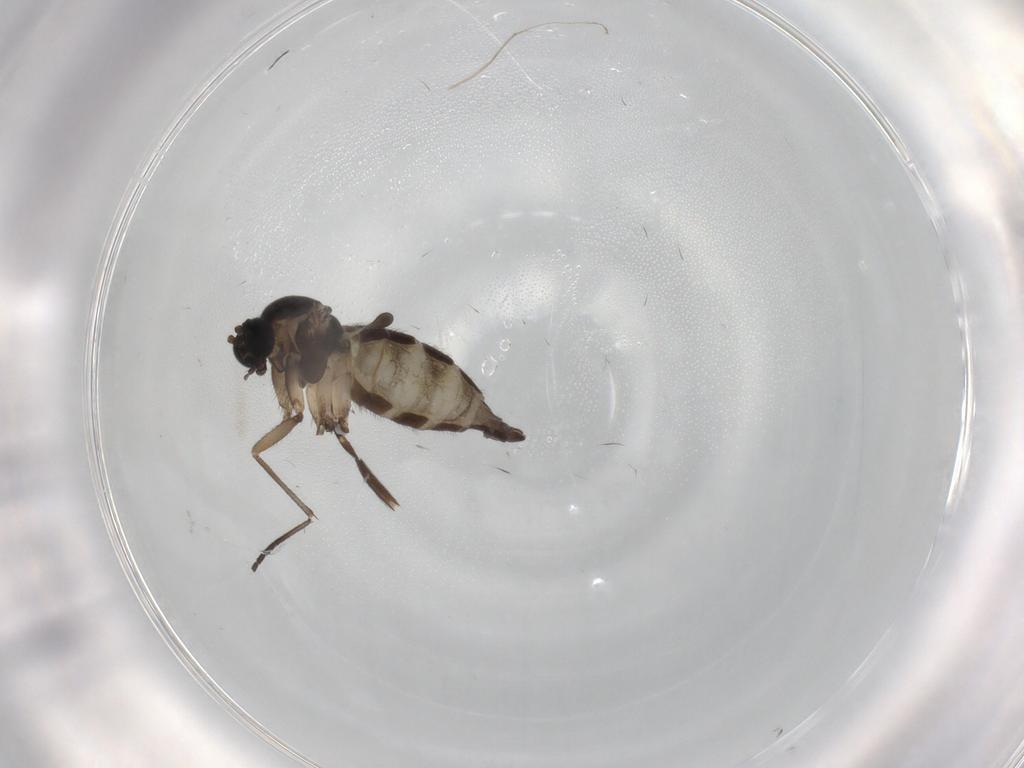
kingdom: Animalia
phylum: Arthropoda
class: Insecta
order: Diptera
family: Sciaridae
